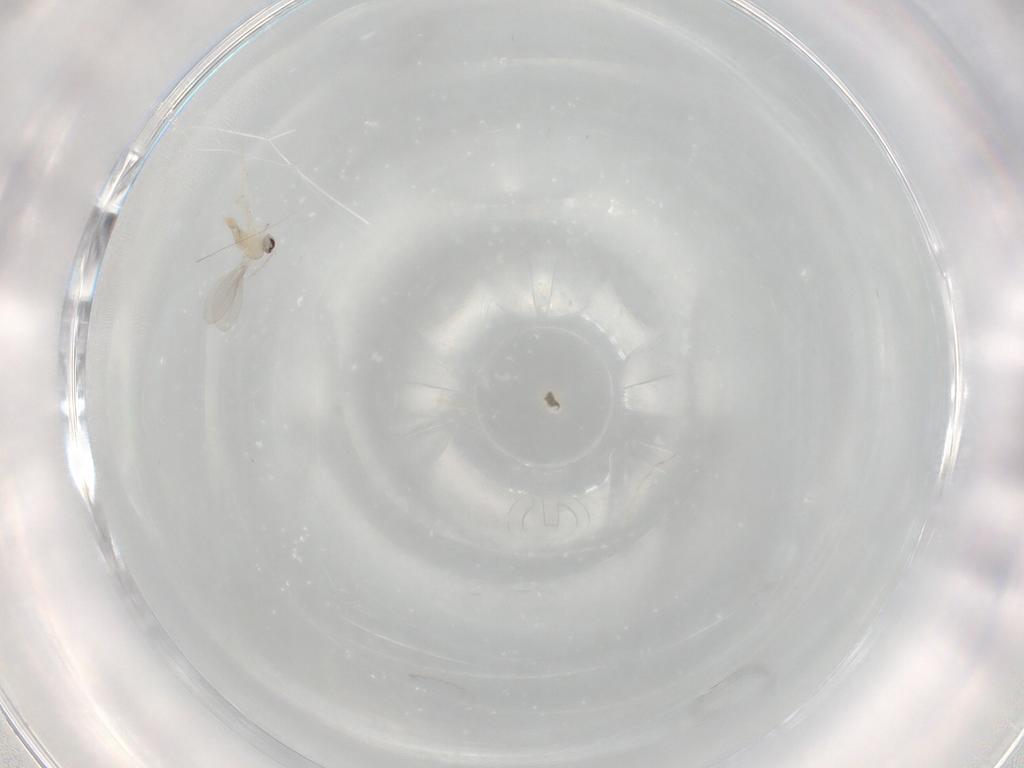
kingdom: Animalia
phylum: Arthropoda
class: Insecta
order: Diptera
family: Cecidomyiidae
